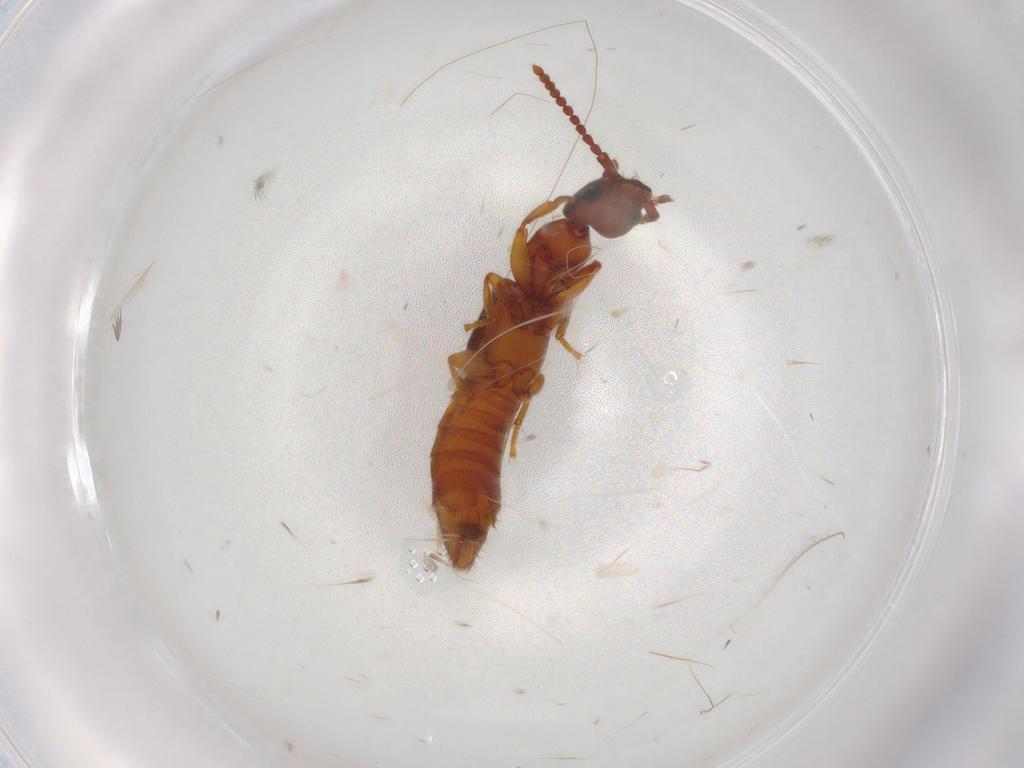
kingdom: Animalia
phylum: Arthropoda
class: Insecta
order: Coleoptera
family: Staphylinidae
